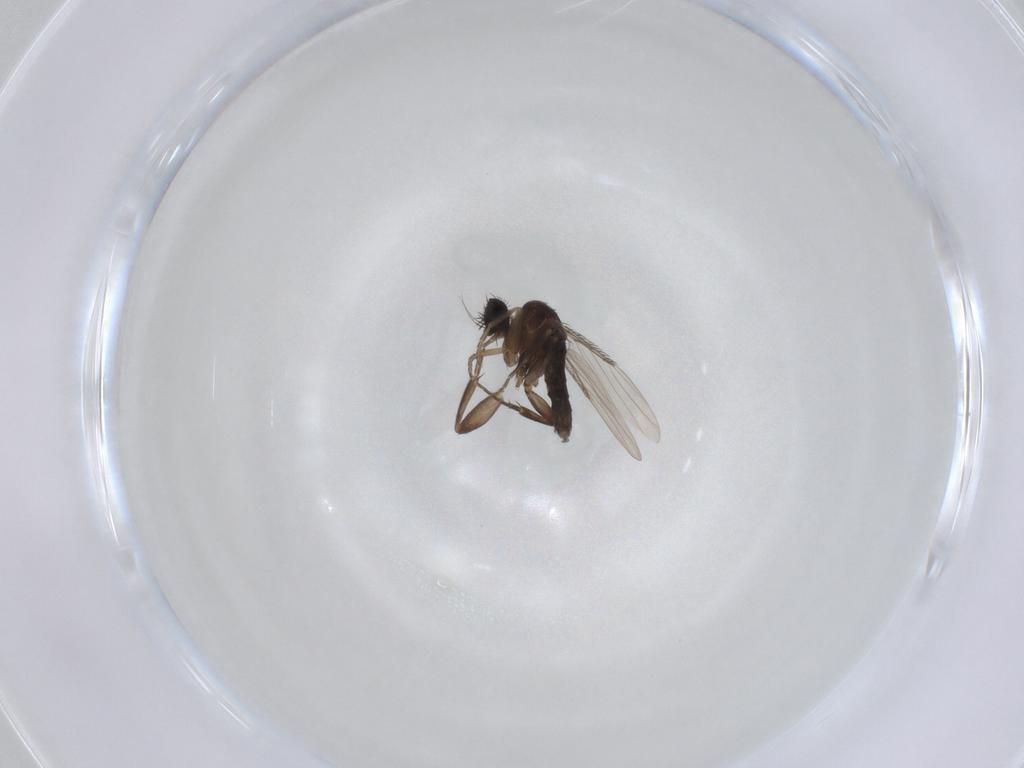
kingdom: Animalia
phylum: Arthropoda
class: Insecta
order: Diptera
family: Phoridae
